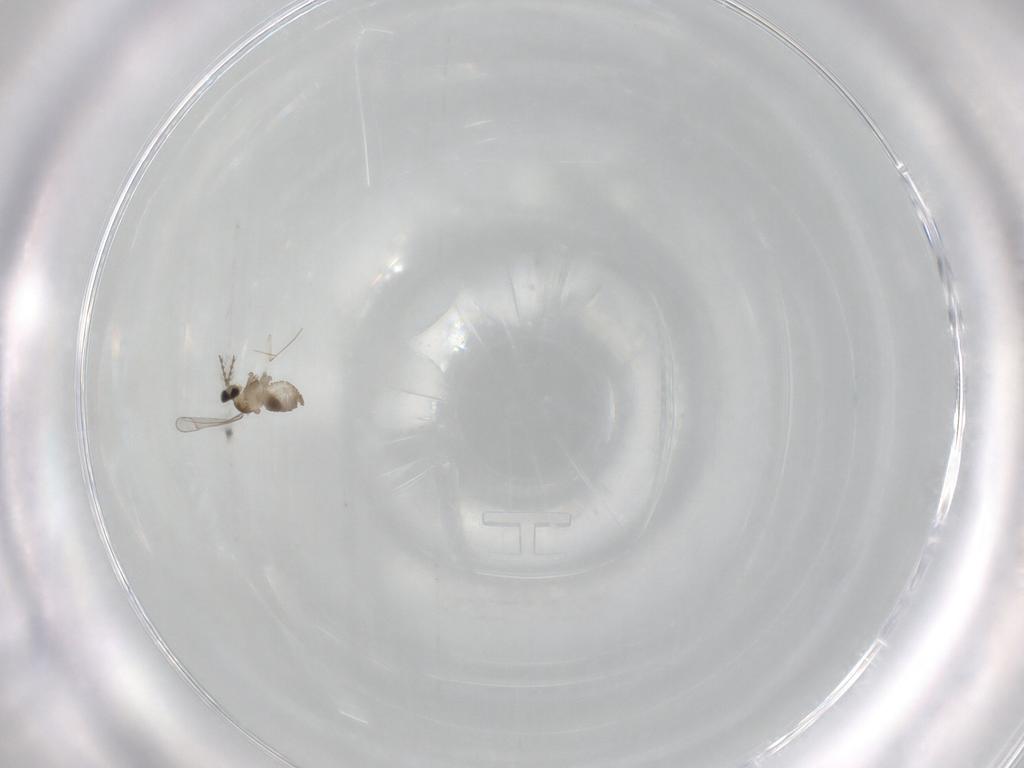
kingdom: Animalia
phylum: Arthropoda
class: Insecta
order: Diptera
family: Cecidomyiidae
